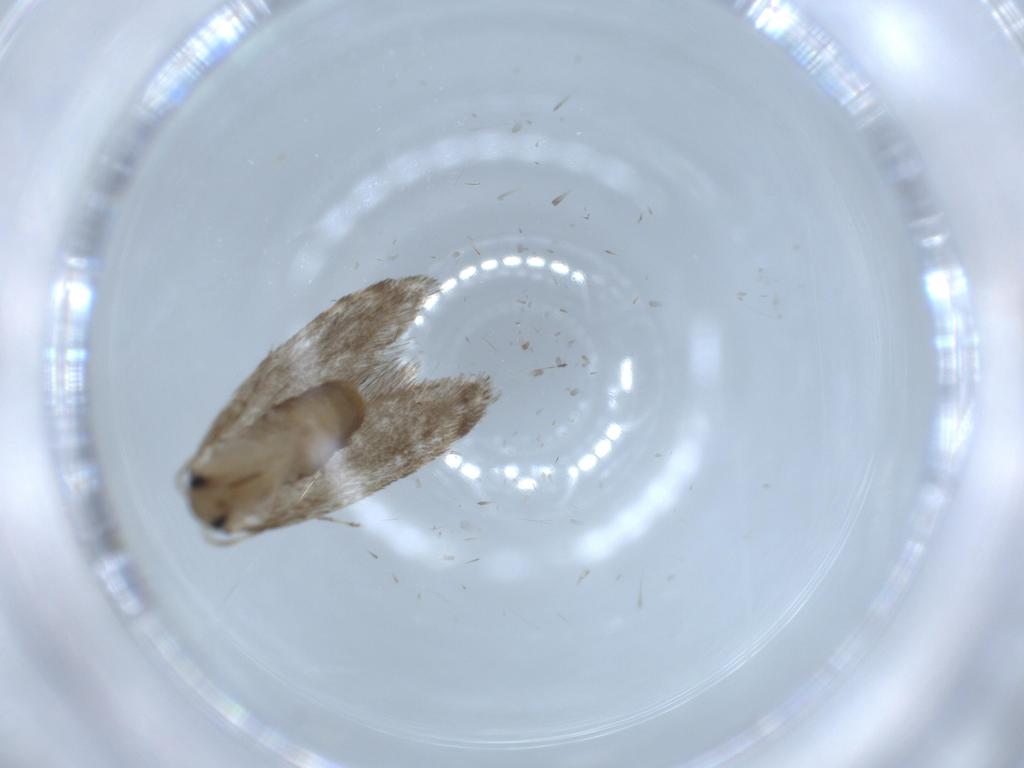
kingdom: Animalia
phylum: Arthropoda
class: Insecta
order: Lepidoptera
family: Tineidae
